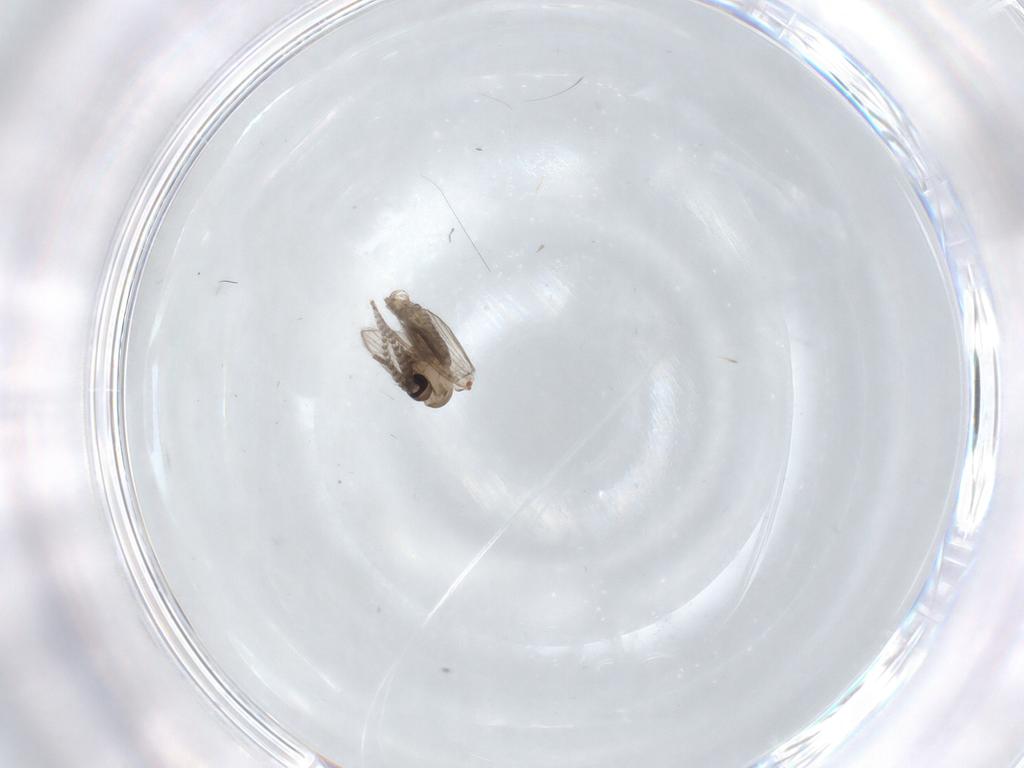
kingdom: Animalia
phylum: Arthropoda
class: Insecta
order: Diptera
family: Psychodidae
